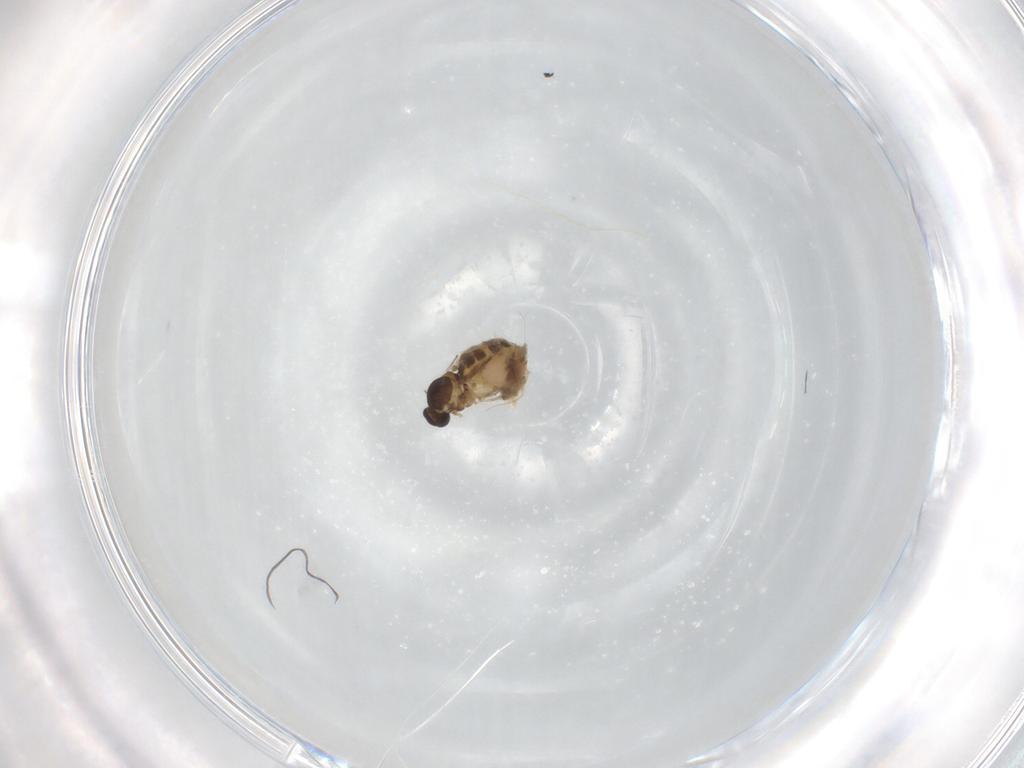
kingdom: Animalia
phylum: Arthropoda
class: Insecta
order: Diptera
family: Ceratopogonidae
